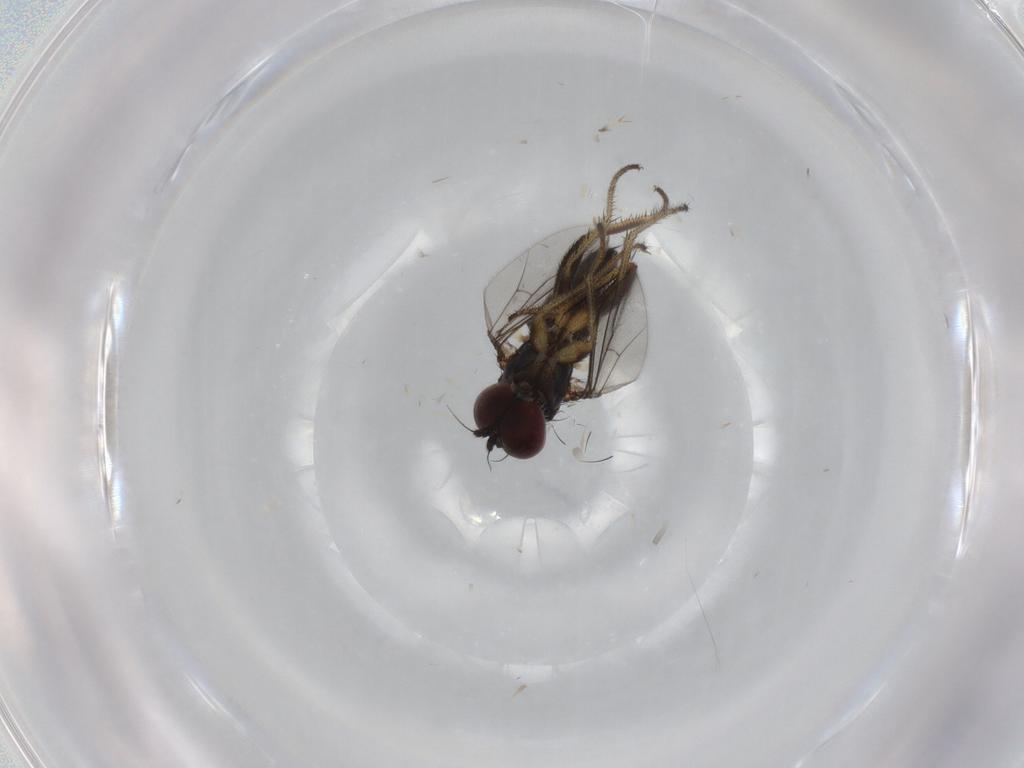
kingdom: Animalia
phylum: Arthropoda
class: Insecta
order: Diptera
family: Dolichopodidae
